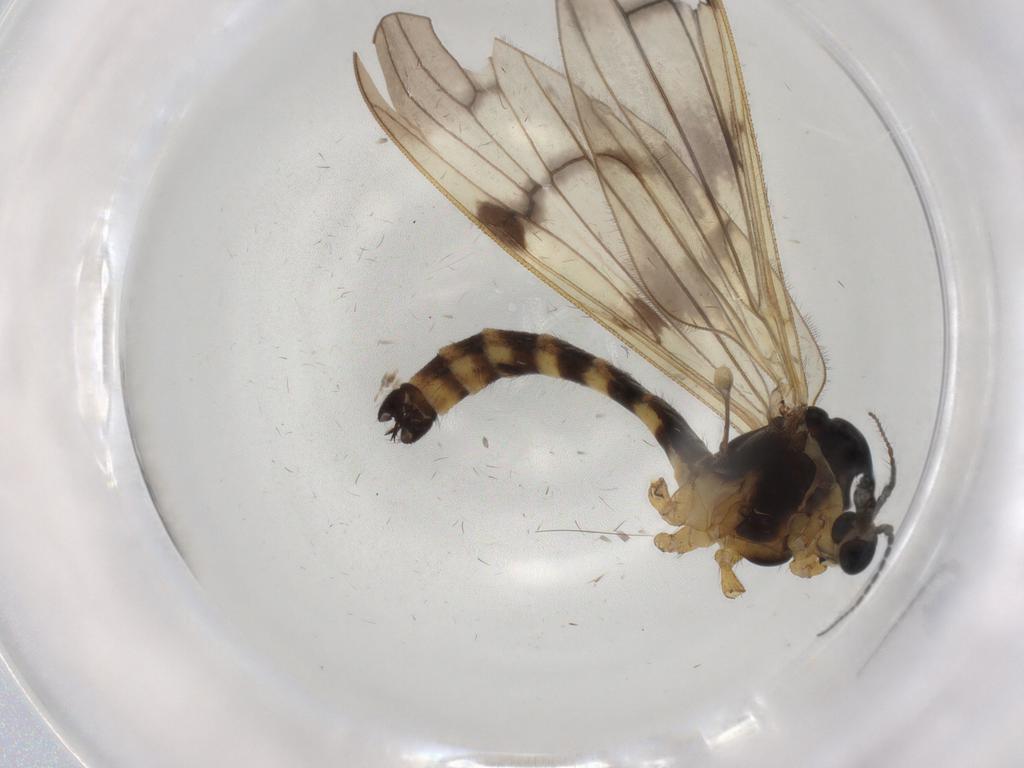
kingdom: Animalia
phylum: Arthropoda
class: Insecta
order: Diptera
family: Limoniidae
